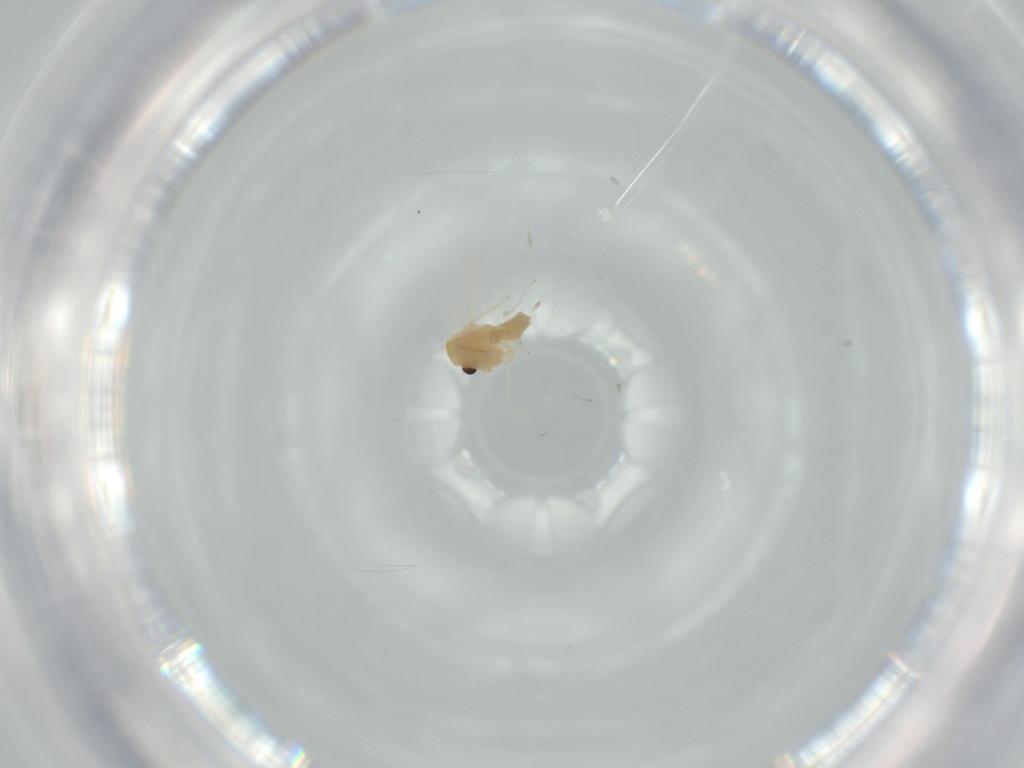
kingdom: Animalia
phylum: Arthropoda
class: Insecta
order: Diptera
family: Chironomidae
